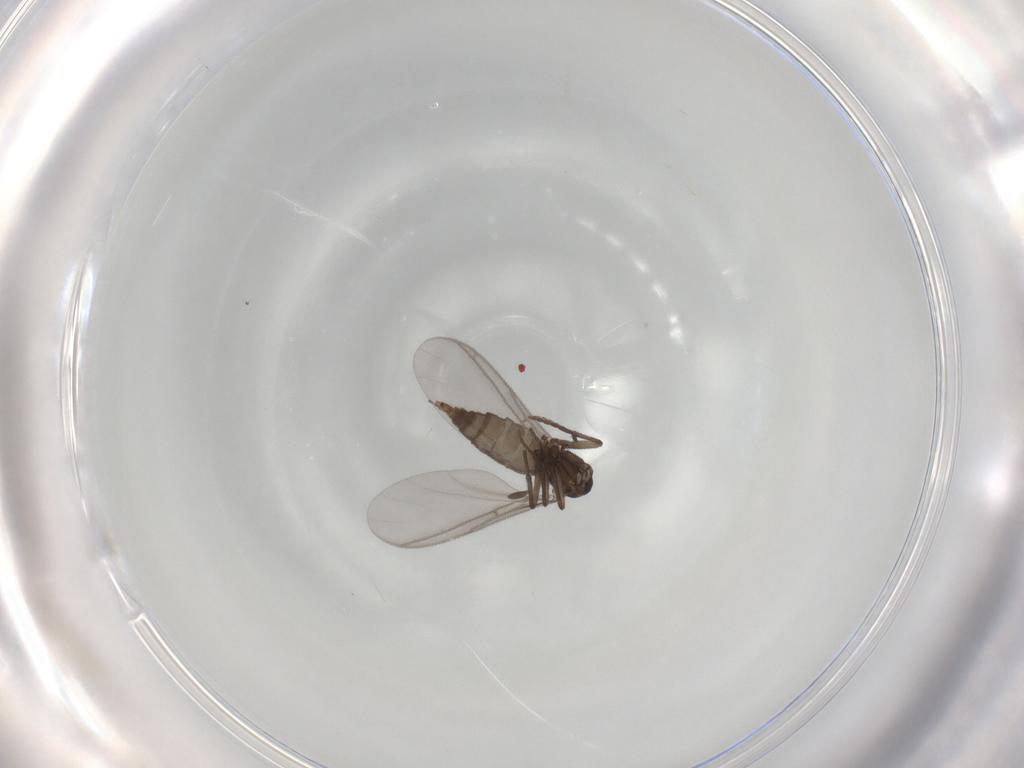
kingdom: Animalia
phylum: Arthropoda
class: Insecta
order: Diptera
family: Sciaridae
